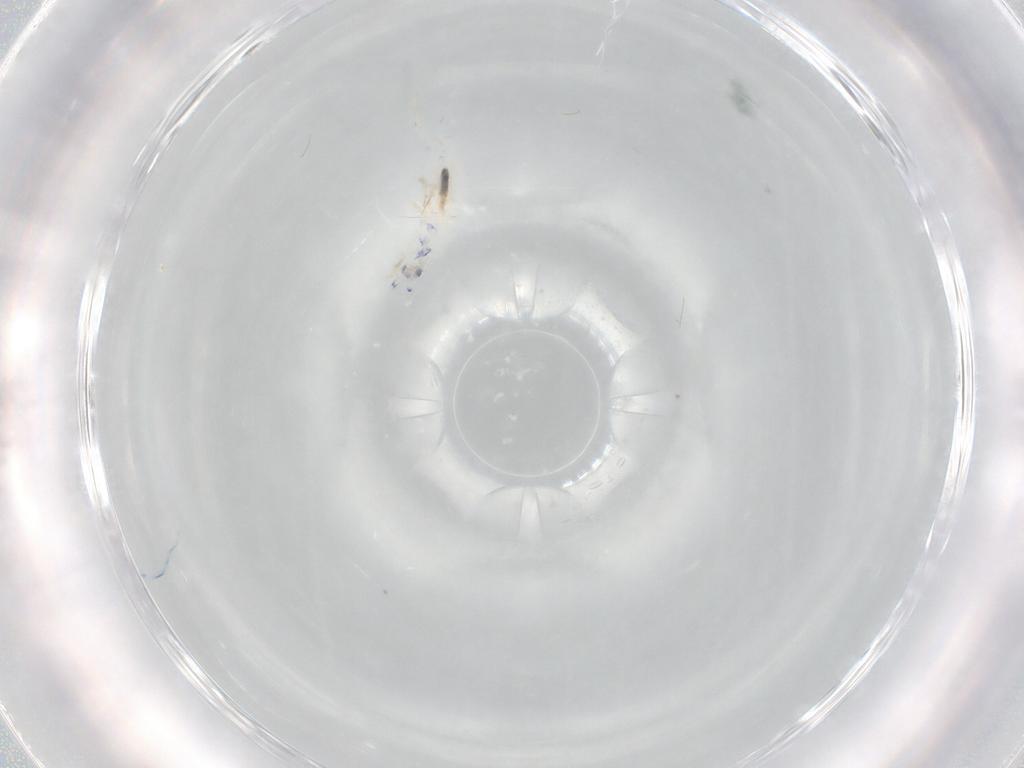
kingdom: Animalia
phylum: Arthropoda
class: Collembola
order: Entomobryomorpha
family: Entomobryidae
